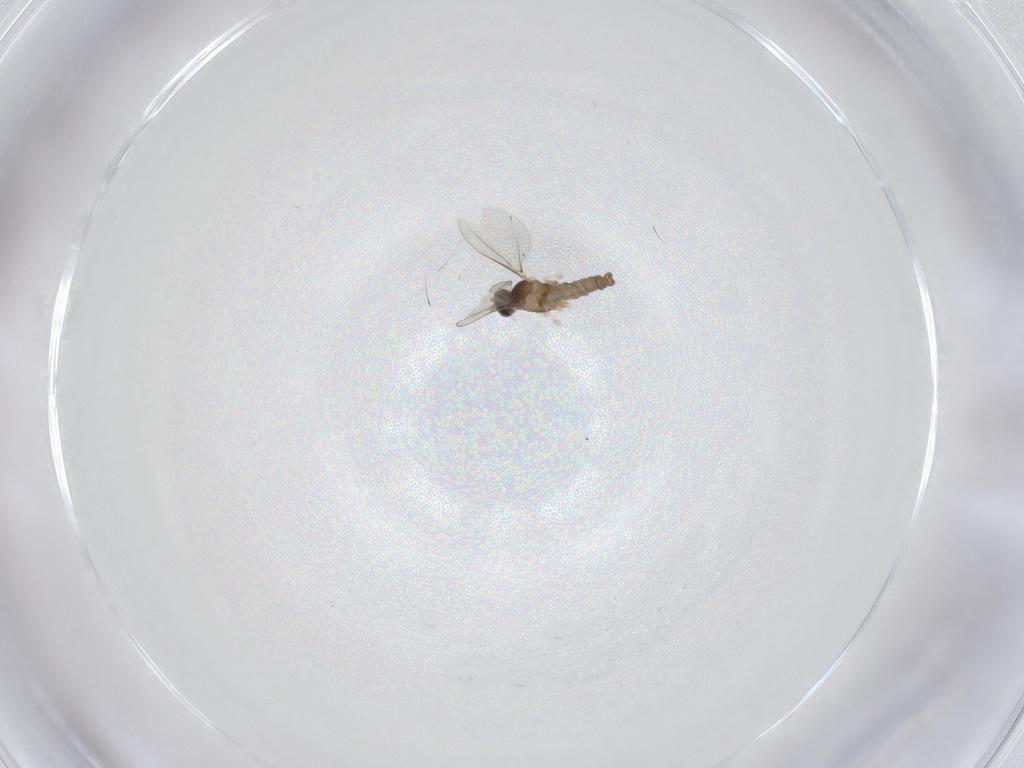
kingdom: Animalia
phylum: Arthropoda
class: Insecta
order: Diptera
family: Cecidomyiidae
